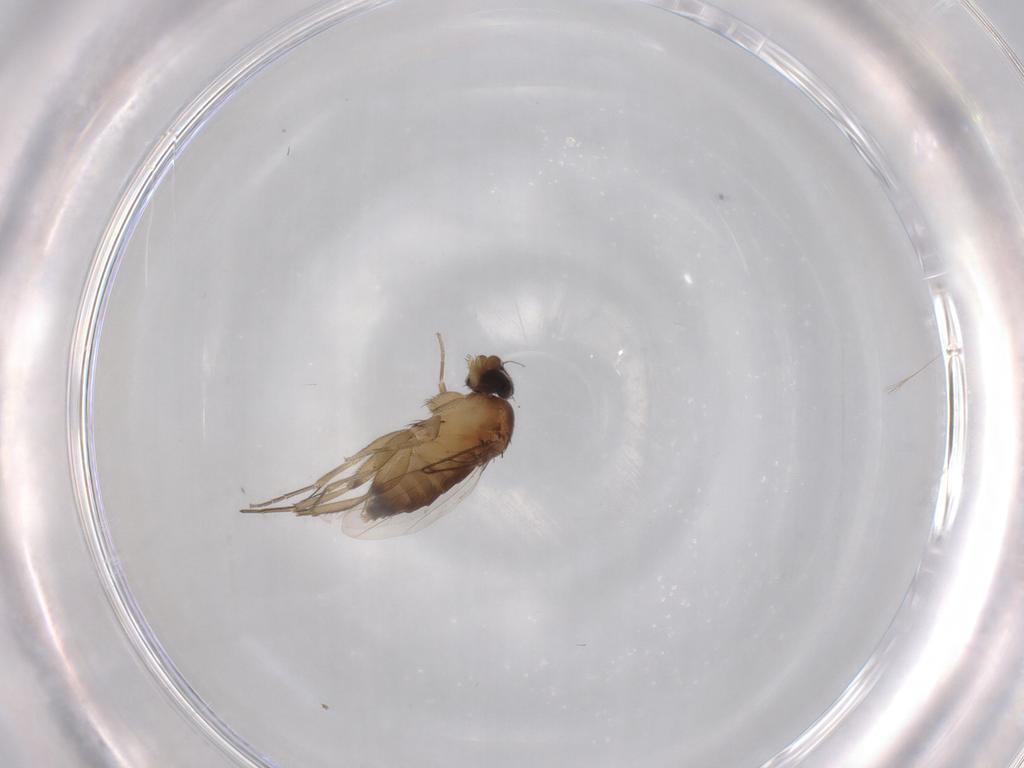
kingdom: Animalia
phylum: Arthropoda
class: Insecta
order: Diptera
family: Phoridae
